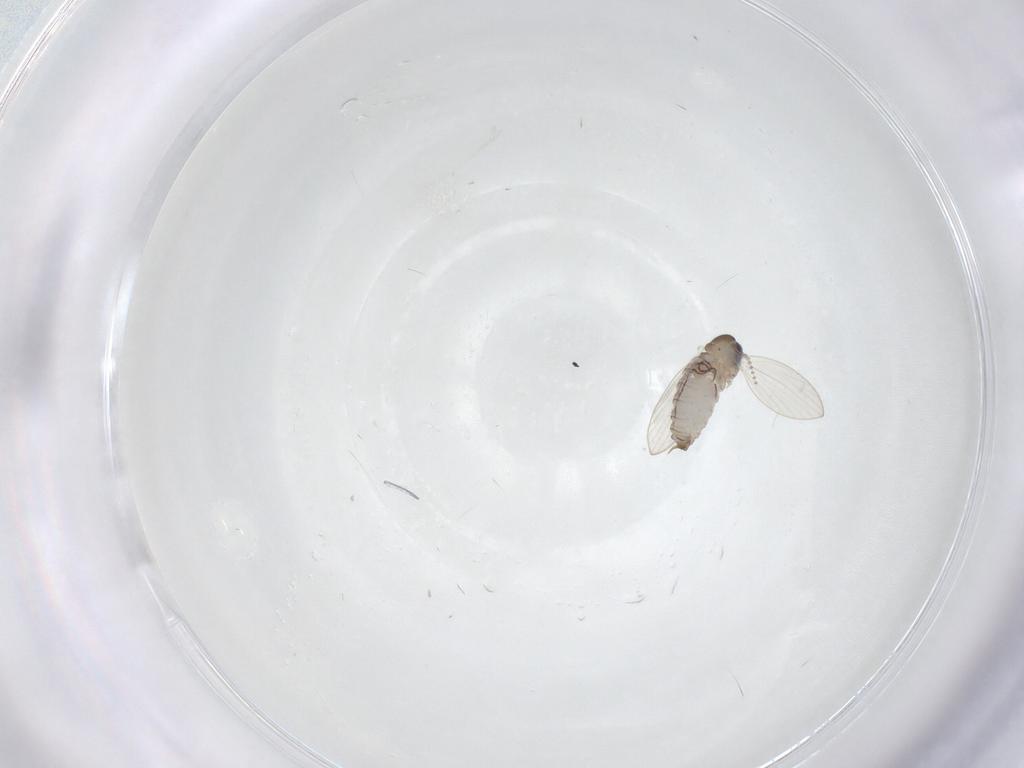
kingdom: Animalia
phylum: Arthropoda
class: Insecta
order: Diptera
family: Psychodidae
